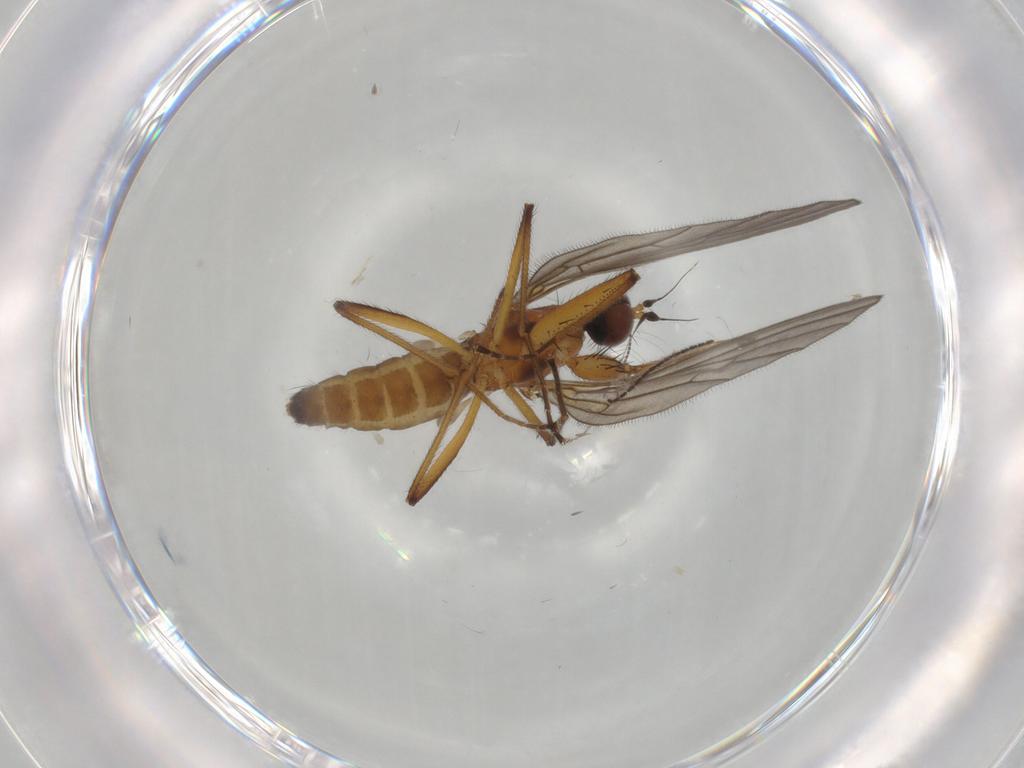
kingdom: Animalia
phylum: Arthropoda
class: Insecta
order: Diptera
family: Empididae
